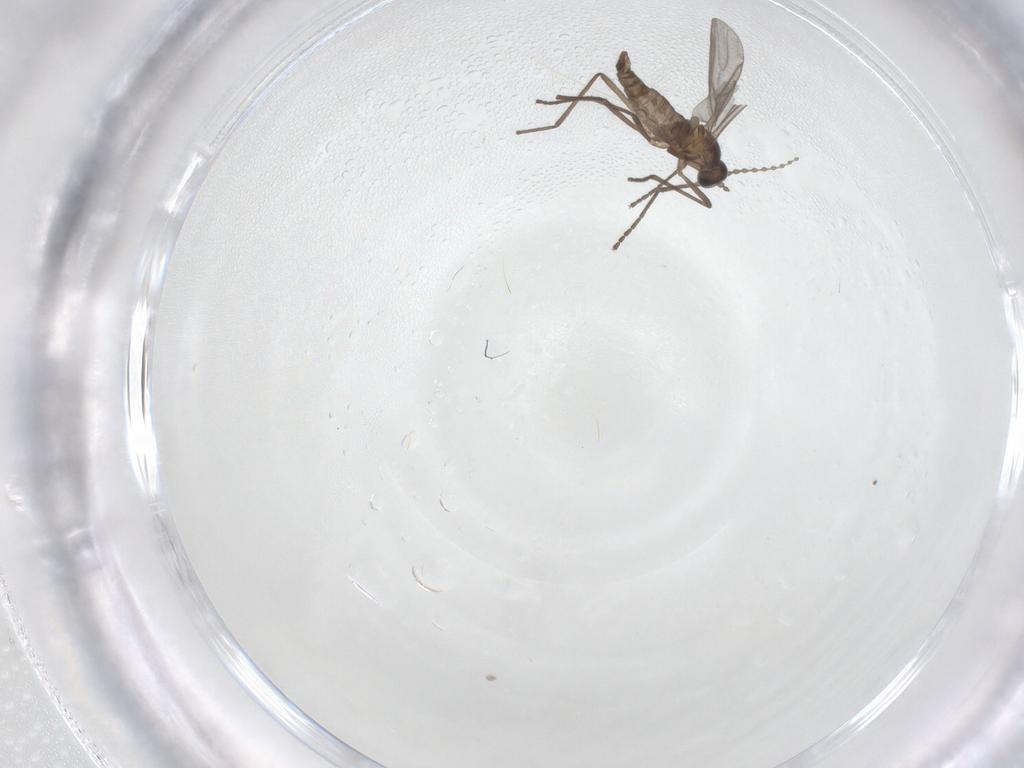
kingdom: Animalia
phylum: Arthropoda
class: Insecta
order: Diptera
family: Cecidomyiidae
